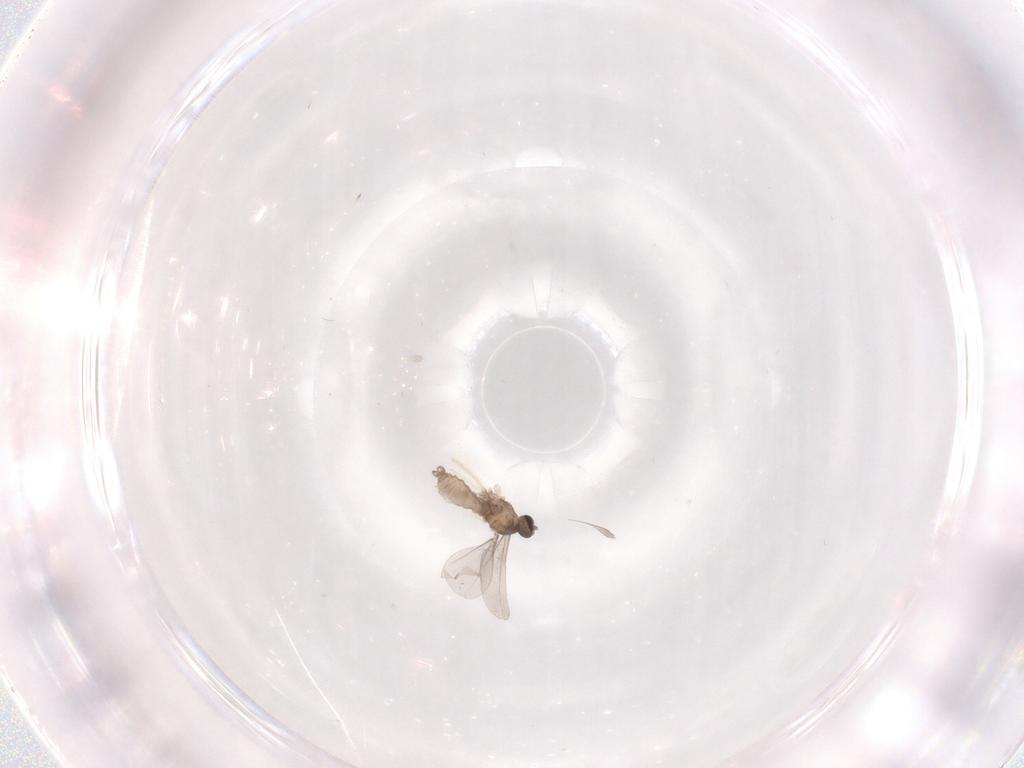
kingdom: Animalia
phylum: Arthropoda
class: Insecta
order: Diptera
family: Cecidomyiidae
